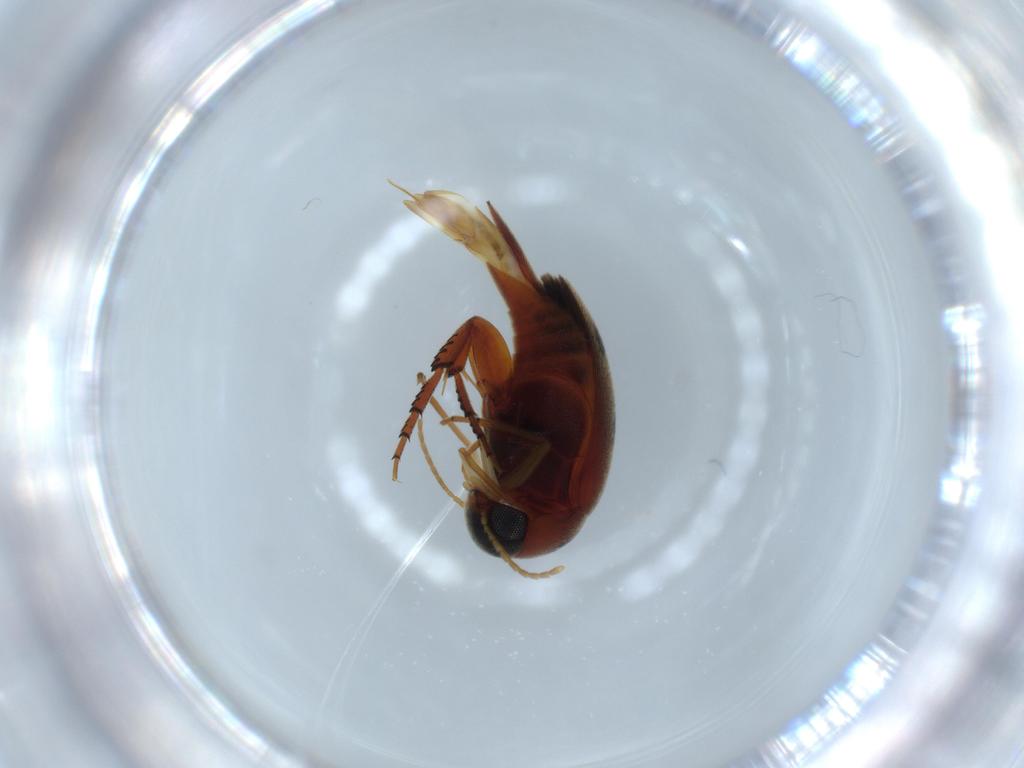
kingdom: Animalia
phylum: Arthropoda
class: Insecta
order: Coleoptera
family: Mordellidae
